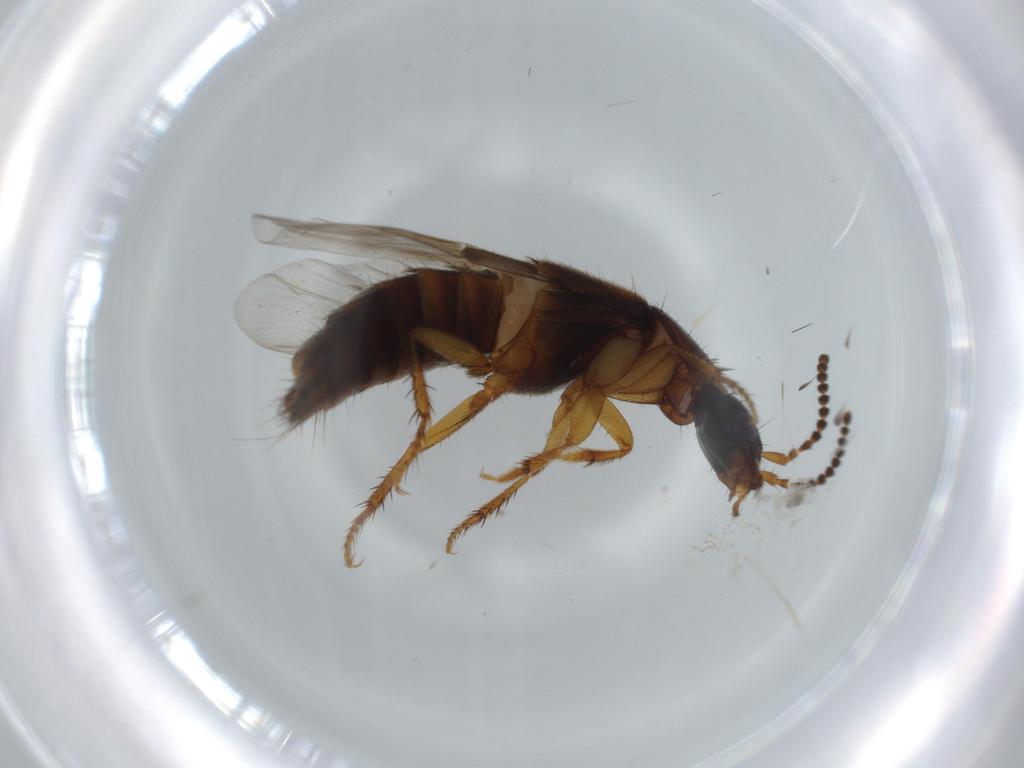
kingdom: Animalia
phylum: Arthropoda
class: Insecta
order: Coleoptera
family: Staphylinidae
